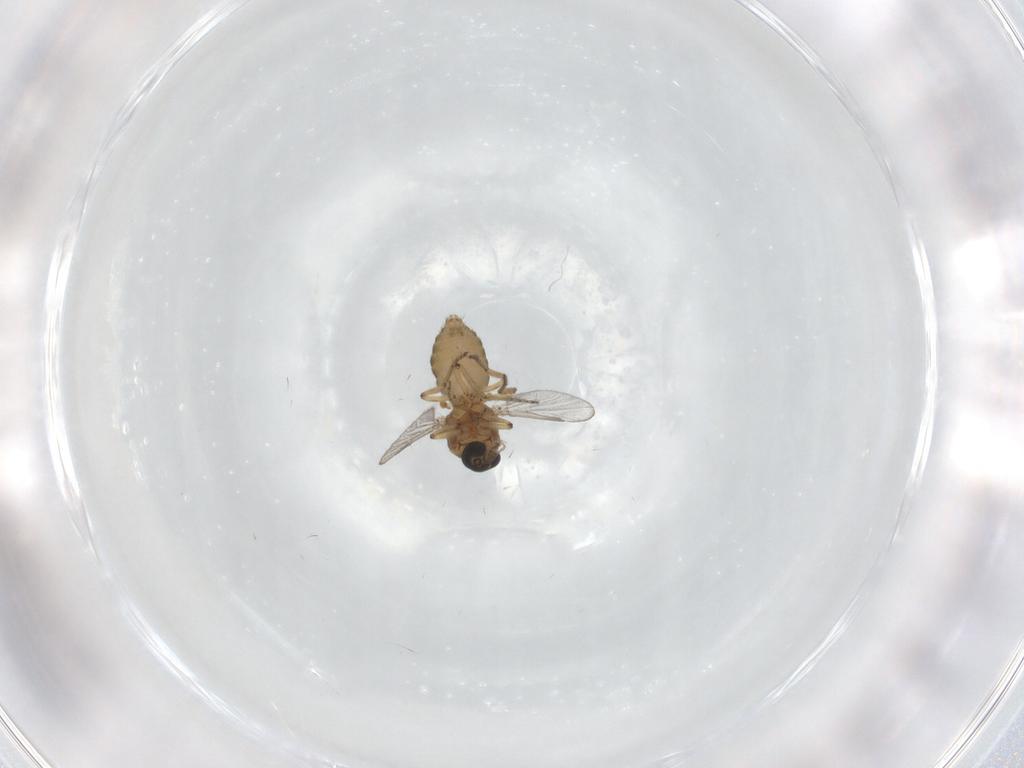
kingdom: Animalia
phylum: Arthropoda
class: Insecta
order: Diptera
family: Ceratopogonidae
